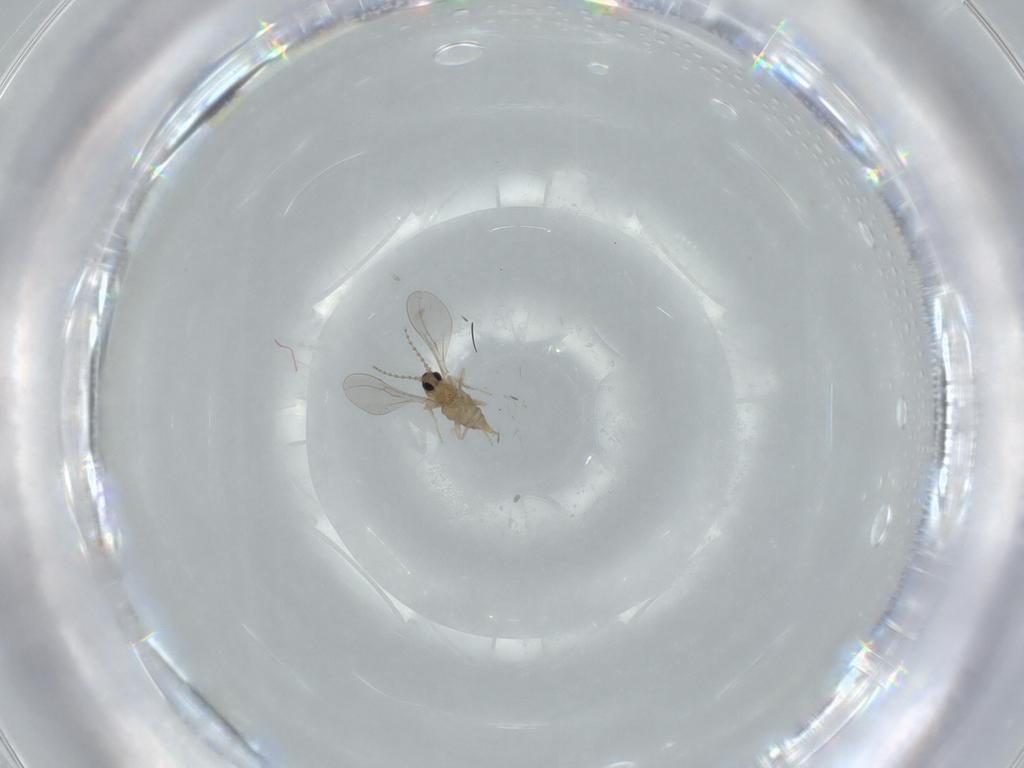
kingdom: Animalia
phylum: Arthropoda
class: Insecta
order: Diptera
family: Cecidomyiidae
